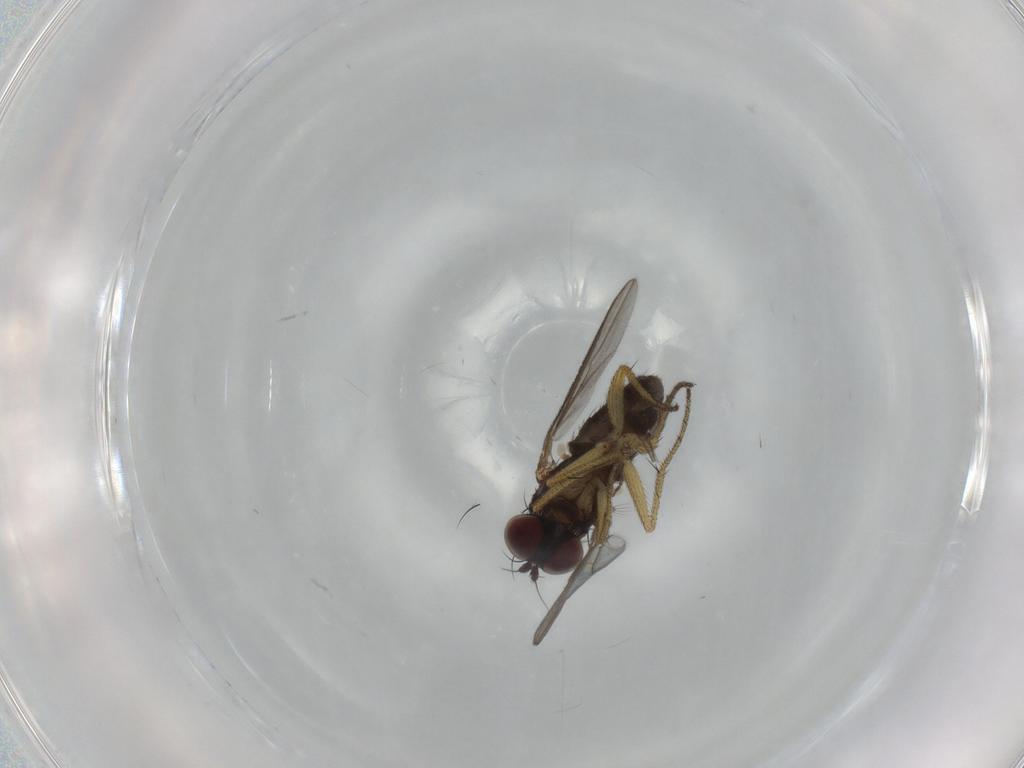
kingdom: Animalia
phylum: Arthropoda
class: Insecta
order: Diptera
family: Dolichopodidae
